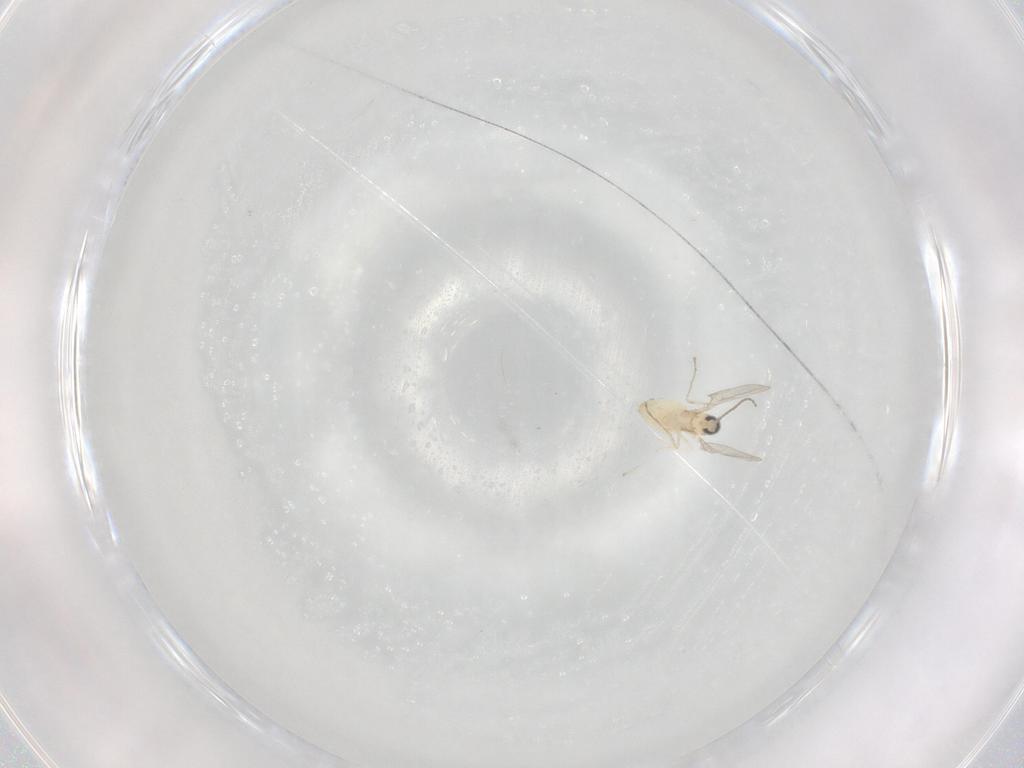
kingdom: Animalia
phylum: Arthropoda
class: Insecta
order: Diptera
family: Cecidomyiidae
